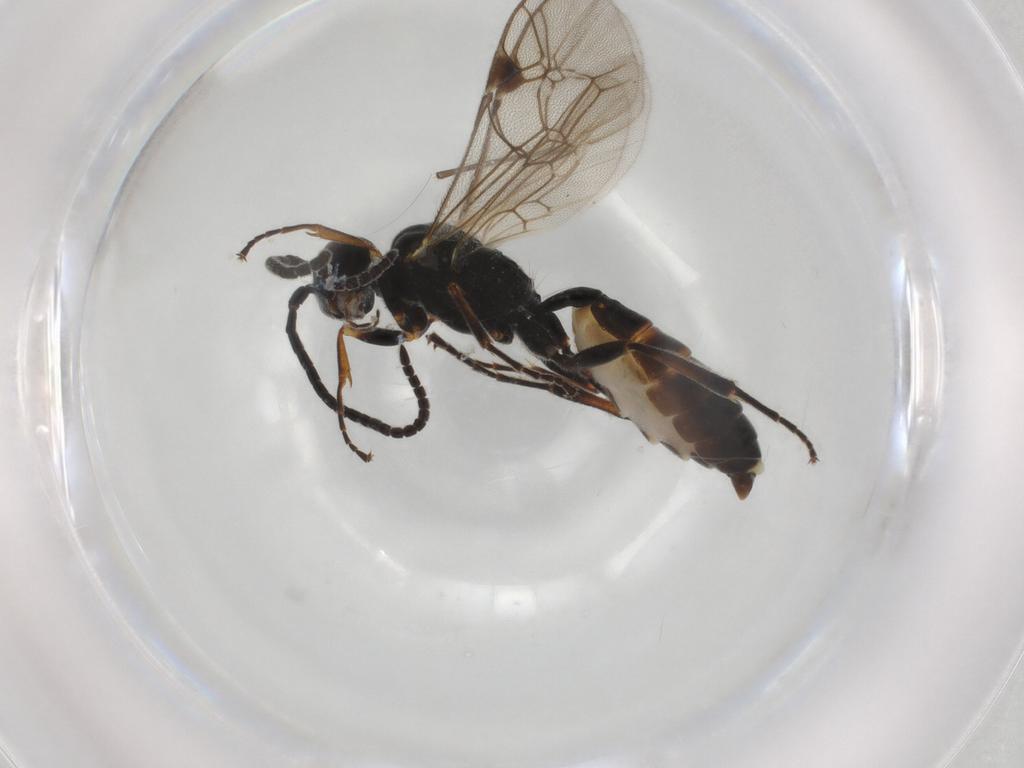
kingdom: Animalia
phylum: Arthropoda
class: Insecta
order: Hymenoptera
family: Ichneumonidae
